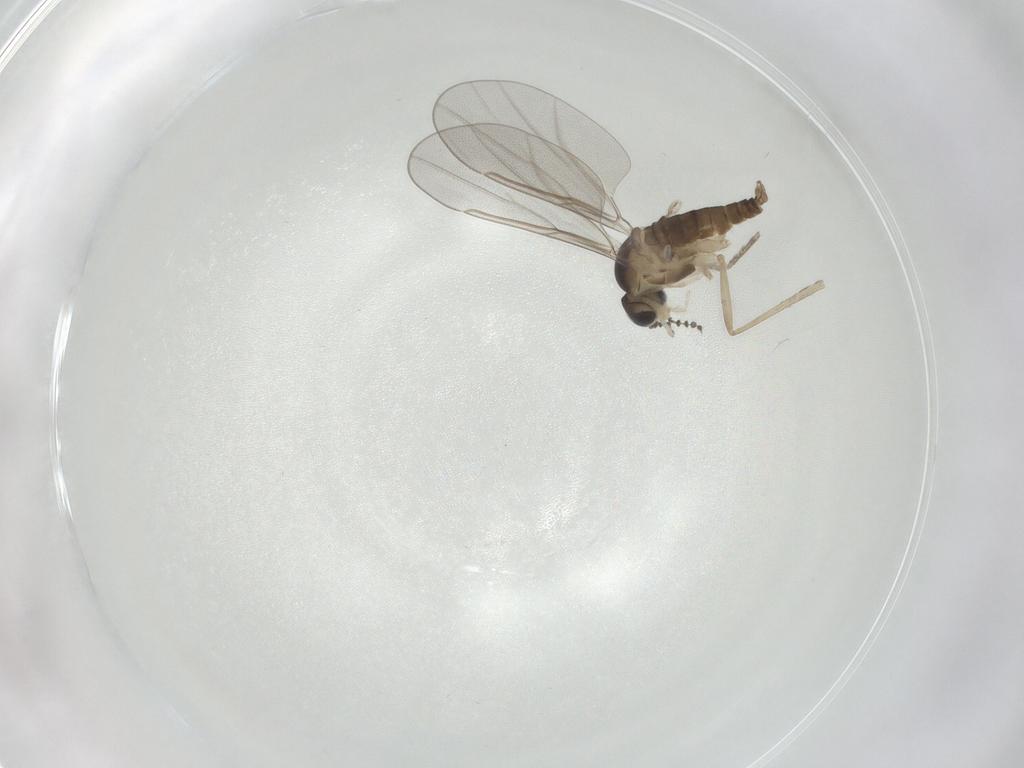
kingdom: Animalia
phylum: Arthropoda
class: Insecta
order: Diptera
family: Cecidomyiidae
